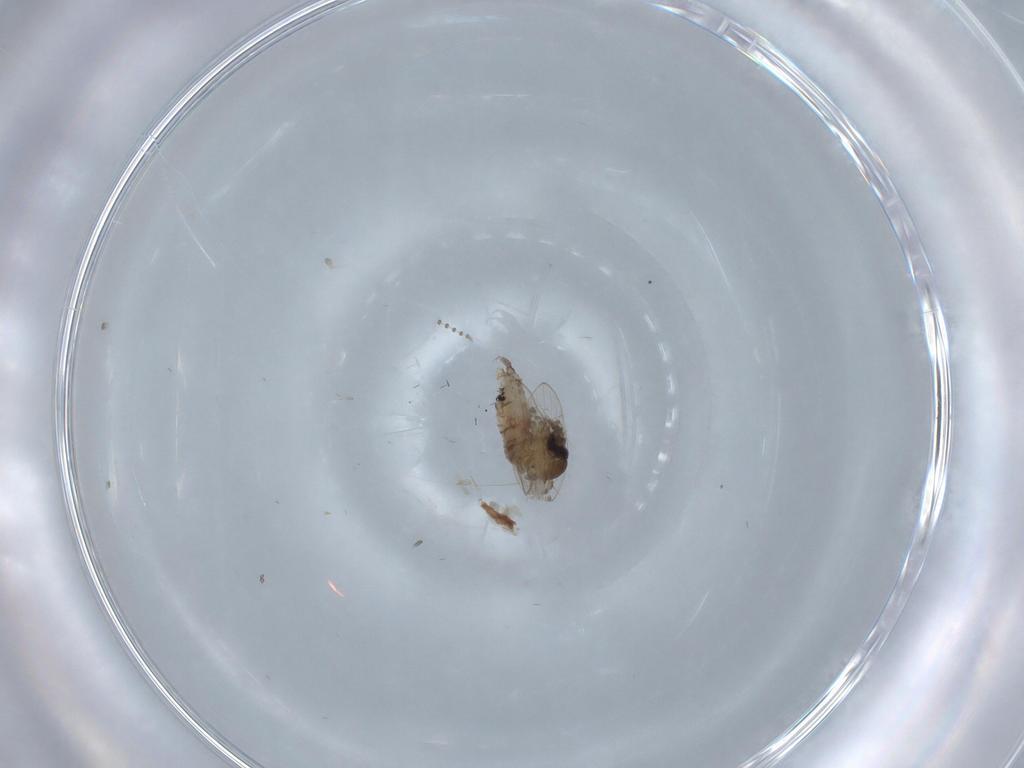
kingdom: Animalia
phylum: Arthropoda
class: Insecta
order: Diptera
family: Psychodidae
